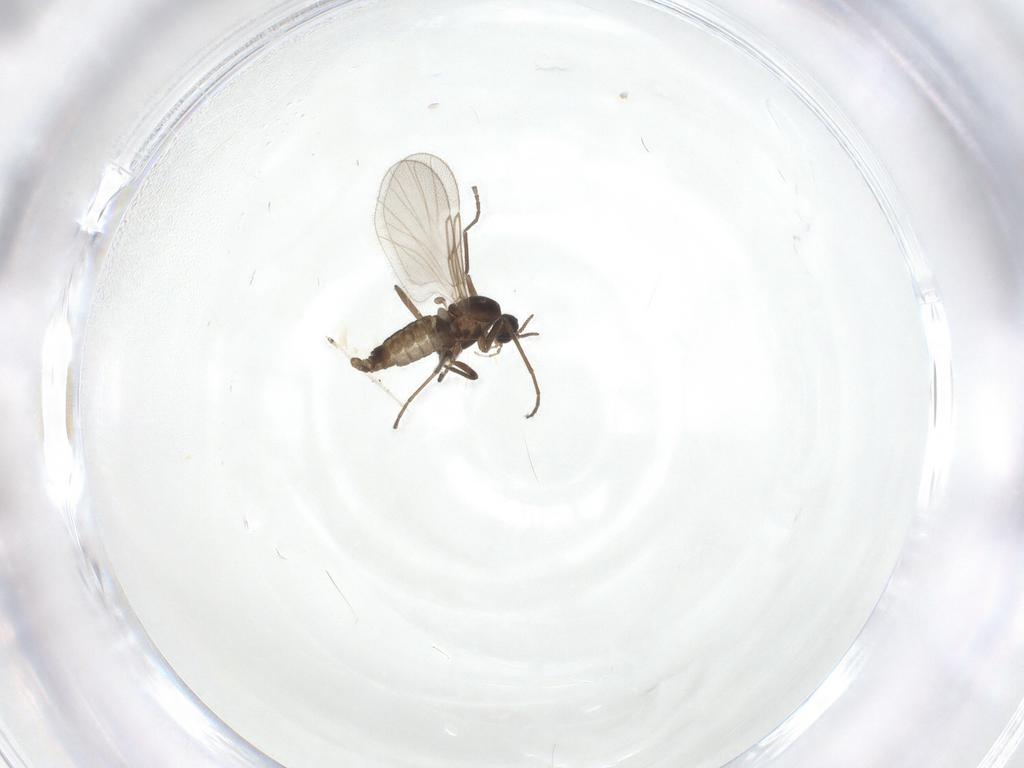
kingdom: Animalia
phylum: Arthropoda
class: Insecta
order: Diptera
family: Cecidomyiidae
